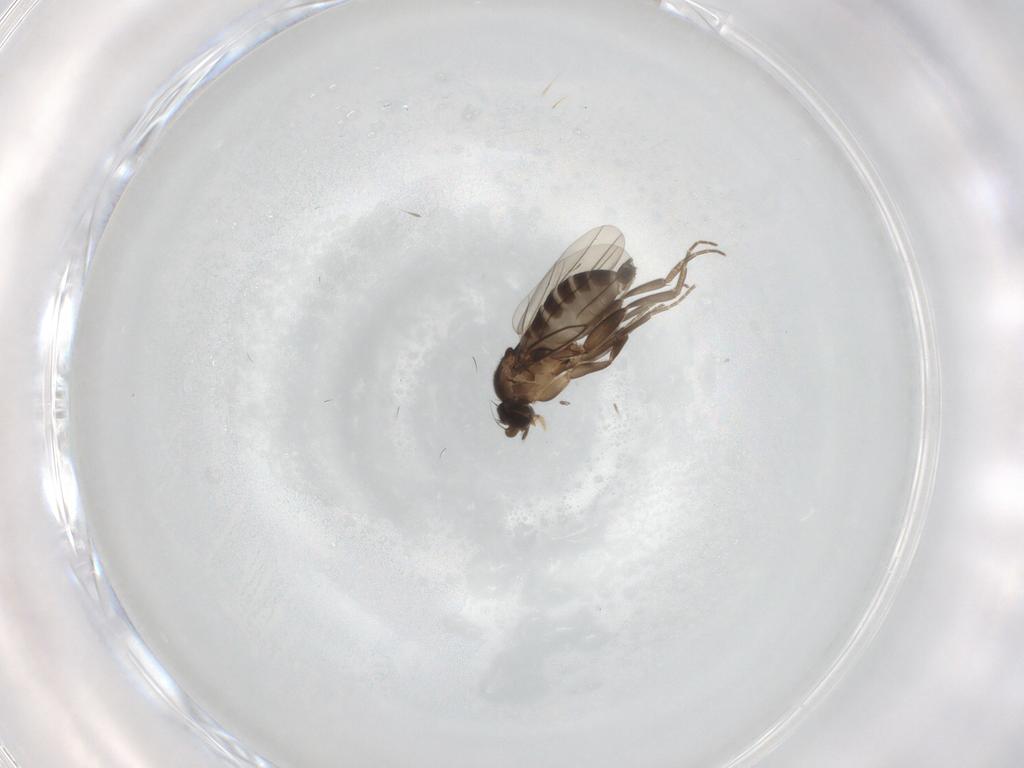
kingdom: Animalia
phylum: Arthropoda
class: Insecta
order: Diptera
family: Phoridae
